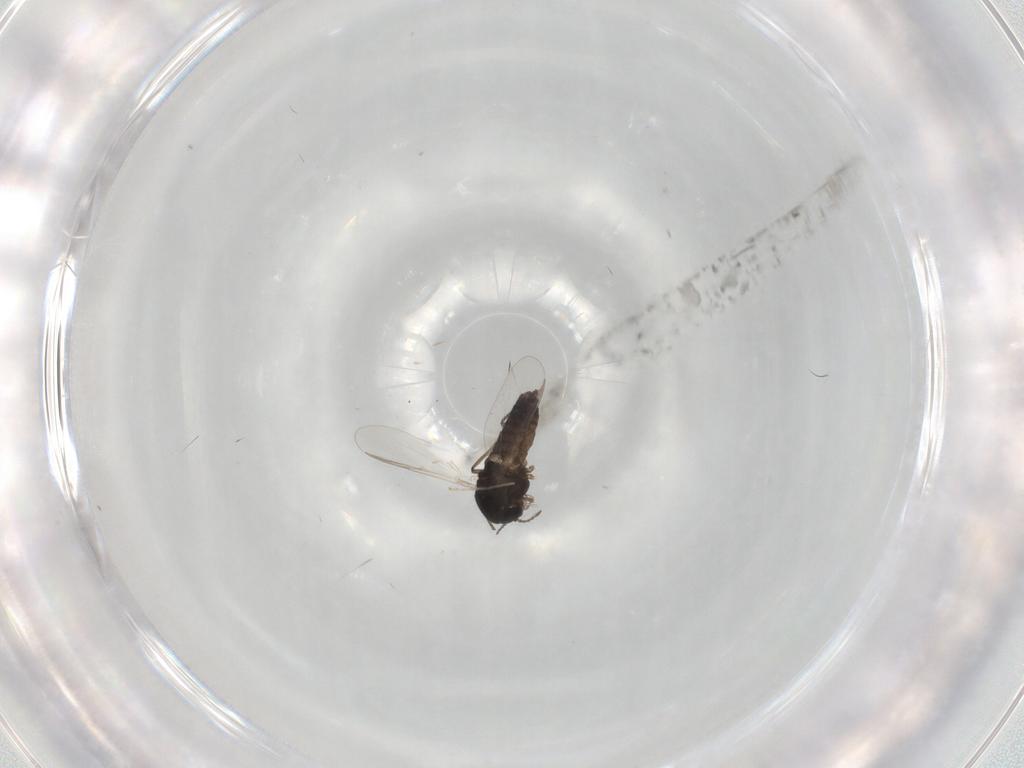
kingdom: Animalia
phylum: Arthropoda
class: Insecta
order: Diptera
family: Chironomidae
